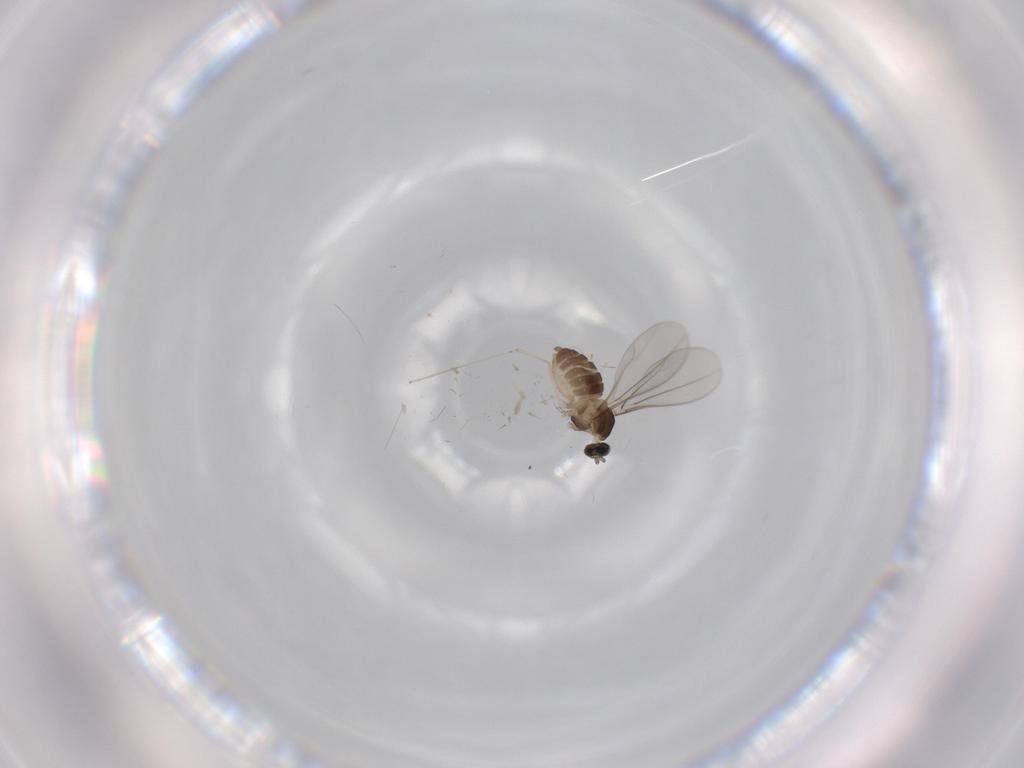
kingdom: Animalia
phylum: Arthropoda
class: Insecta
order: Diptera
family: Cecidomyiidae
